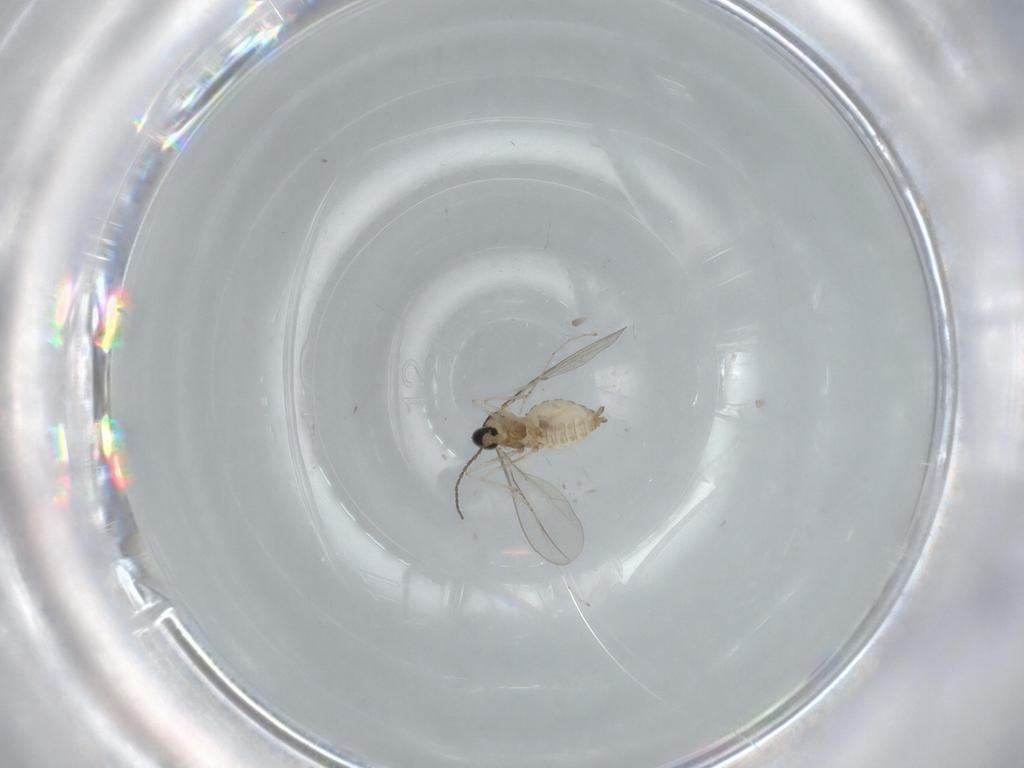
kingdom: Animalia
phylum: Arthropoda
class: Insecta
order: Diptera
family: Cecidomyiidae
